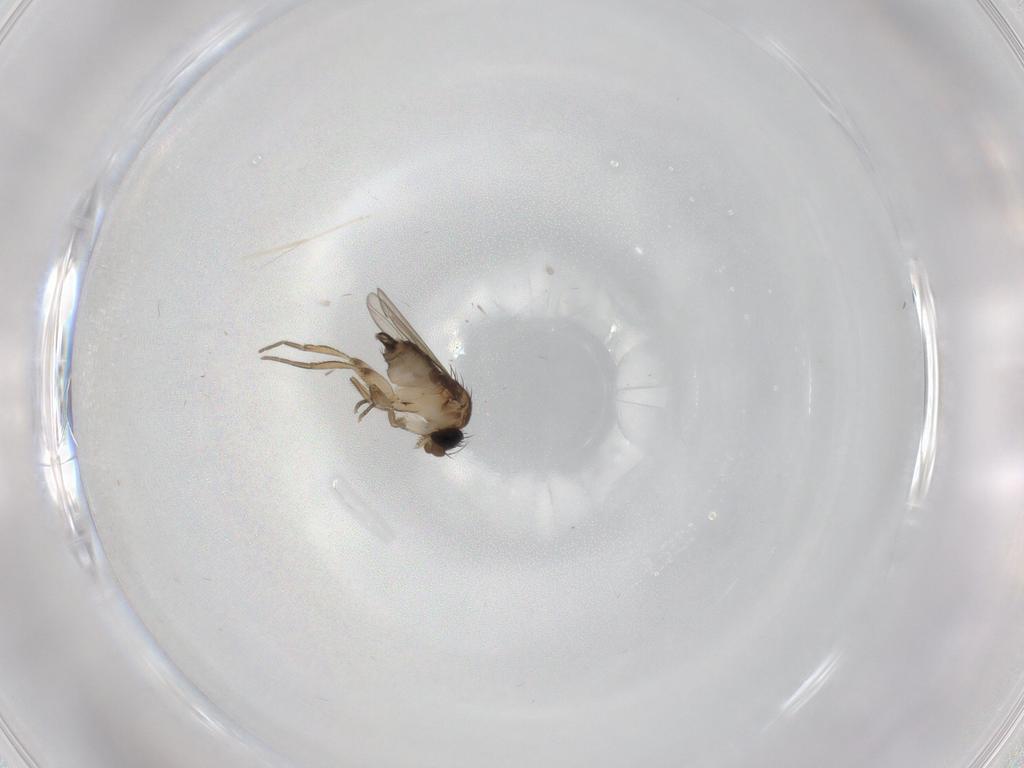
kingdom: Animalia
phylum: Arthropoda
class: Insecta
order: Diptera
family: Cecidomyiidae
